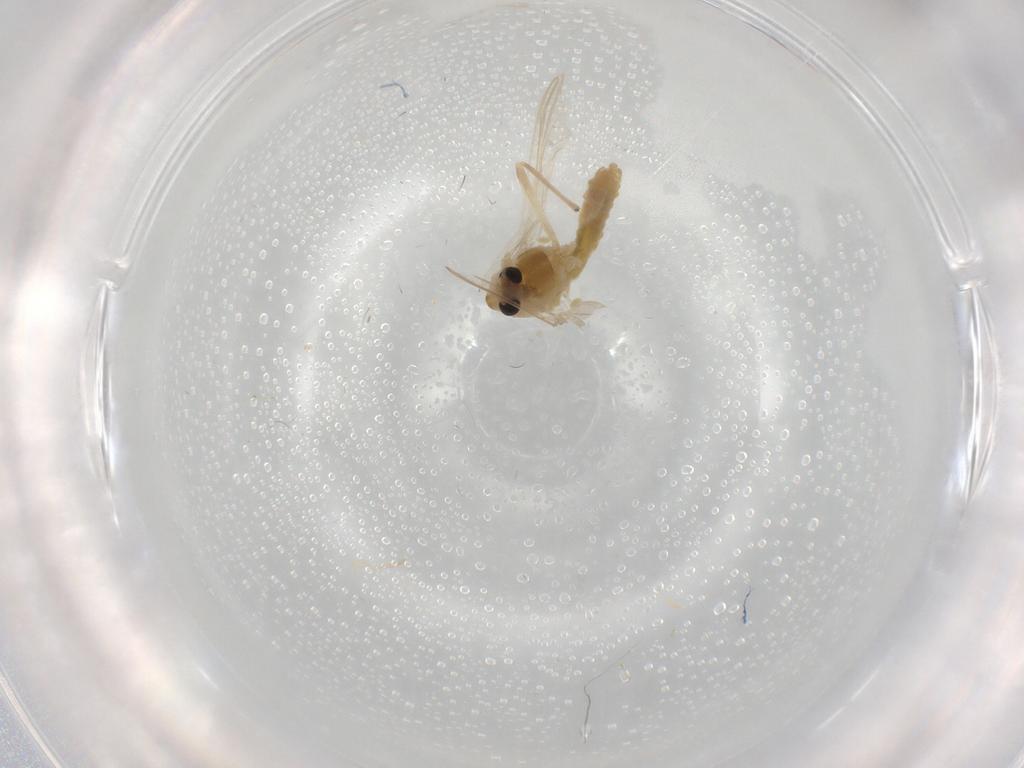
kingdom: Animalia
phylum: Arthropoda
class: Insecta
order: Diptera
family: Chironomidae
